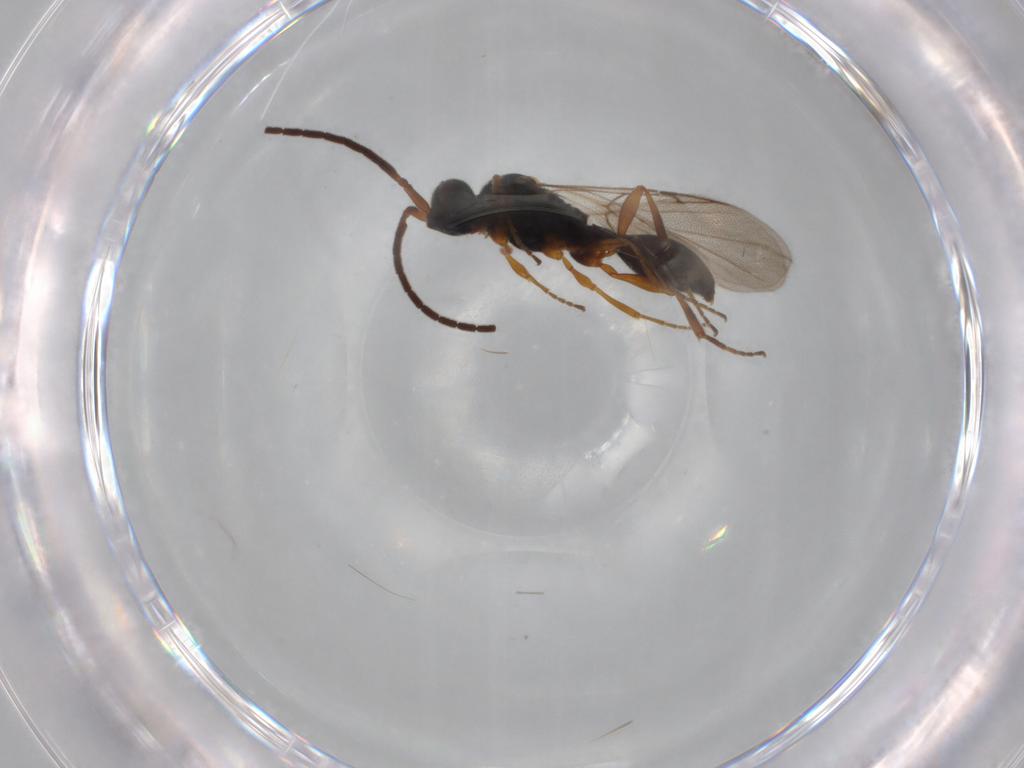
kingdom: Animalia
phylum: Arthropoda
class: Insecta
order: Hymenoptera
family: Diapriidae
